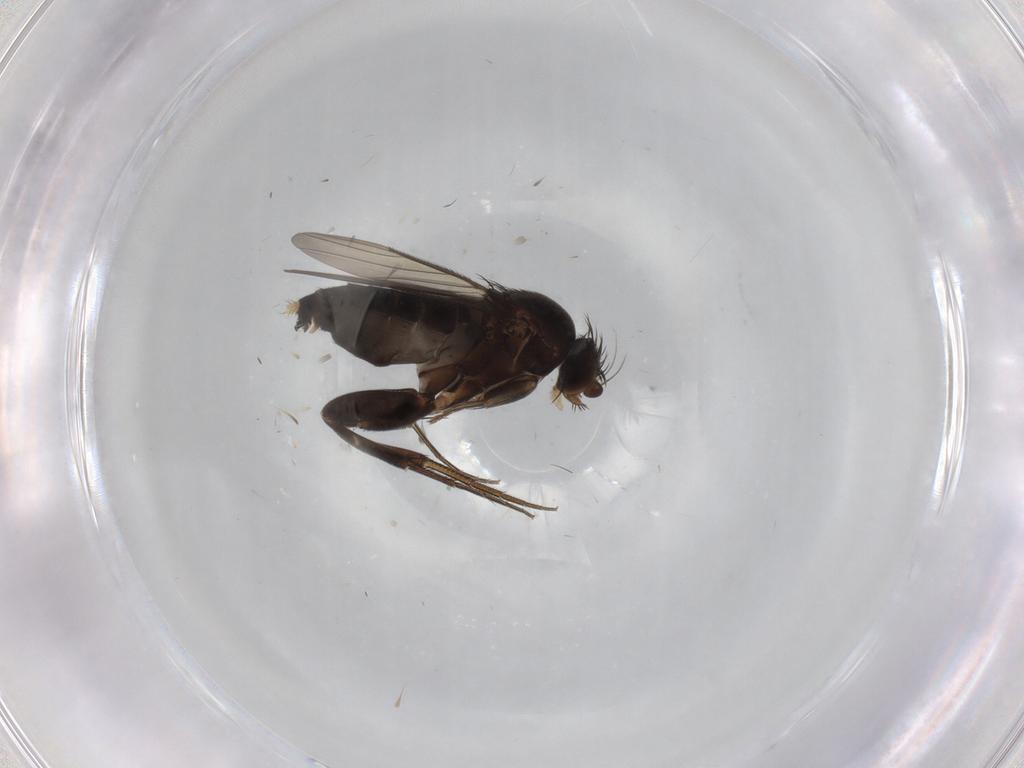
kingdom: Animalia
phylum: Arthropoda
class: Insecta
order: Diptera
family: Cecidomyiidae
